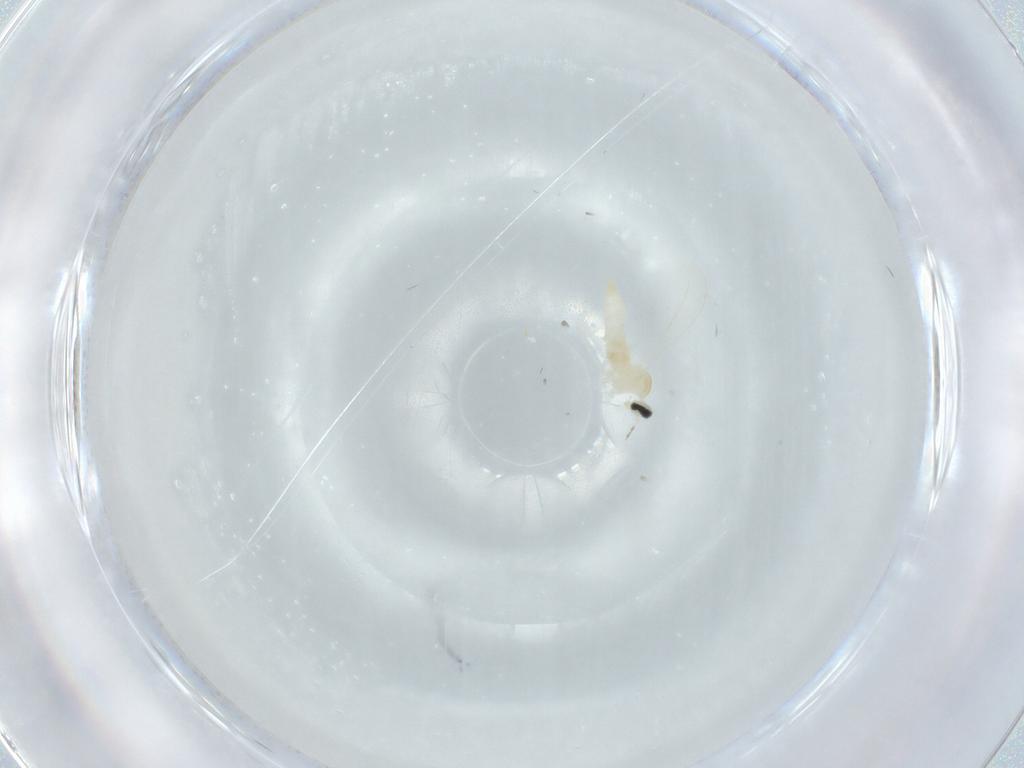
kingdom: Animalia
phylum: Arthropoda
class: Insecta
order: Diptera
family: Cecidomyiidae
